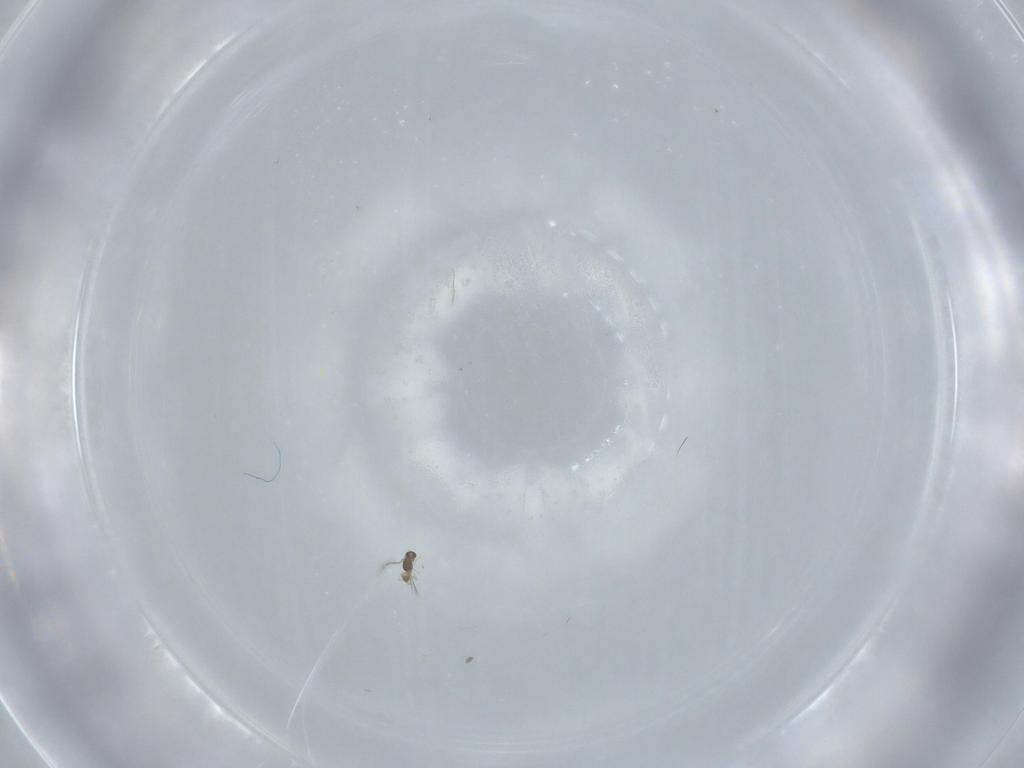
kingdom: Animalia
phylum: Arthropoda
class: Insecta
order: Hymenoptera
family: Mymaridae
